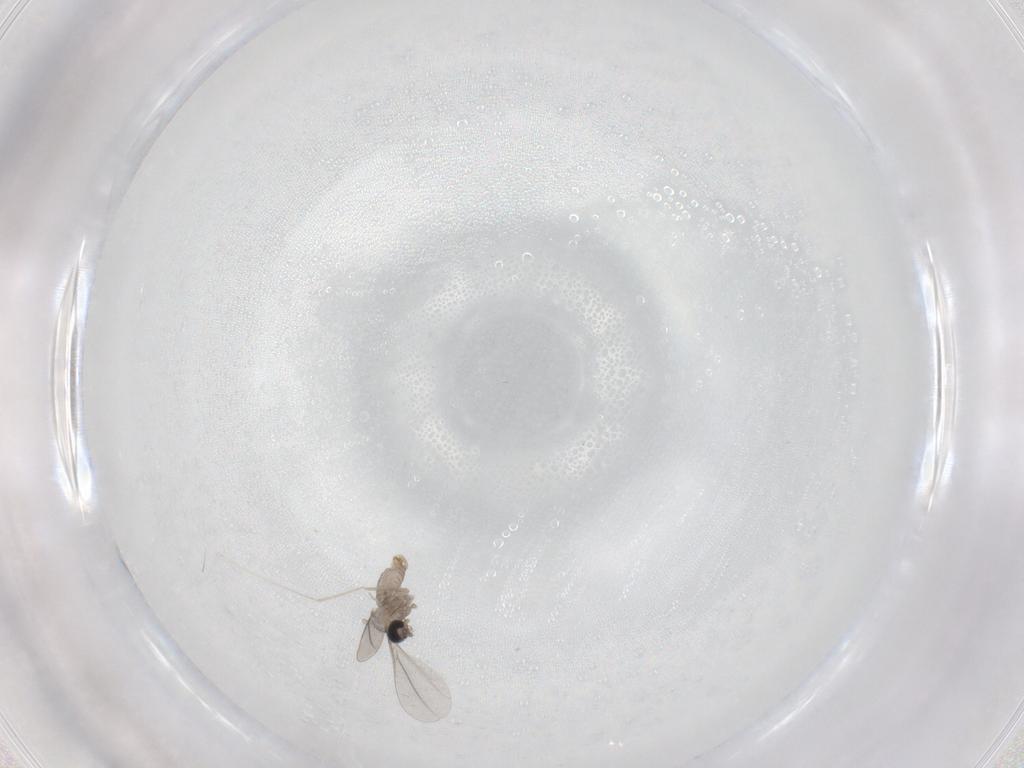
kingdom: Animalia
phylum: Arthropoda
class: Insecta
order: Diptera
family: Cecidomyiidae
